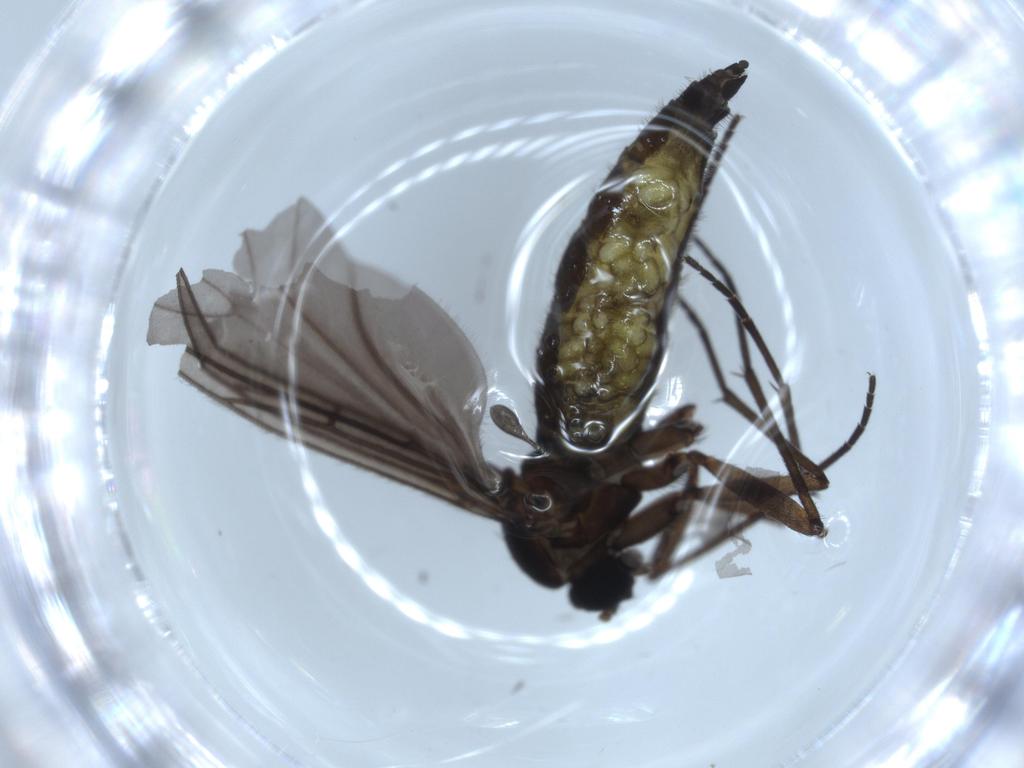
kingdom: Animalia
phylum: Arthropoda
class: Insecta
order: Diptera
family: Sciaridae
